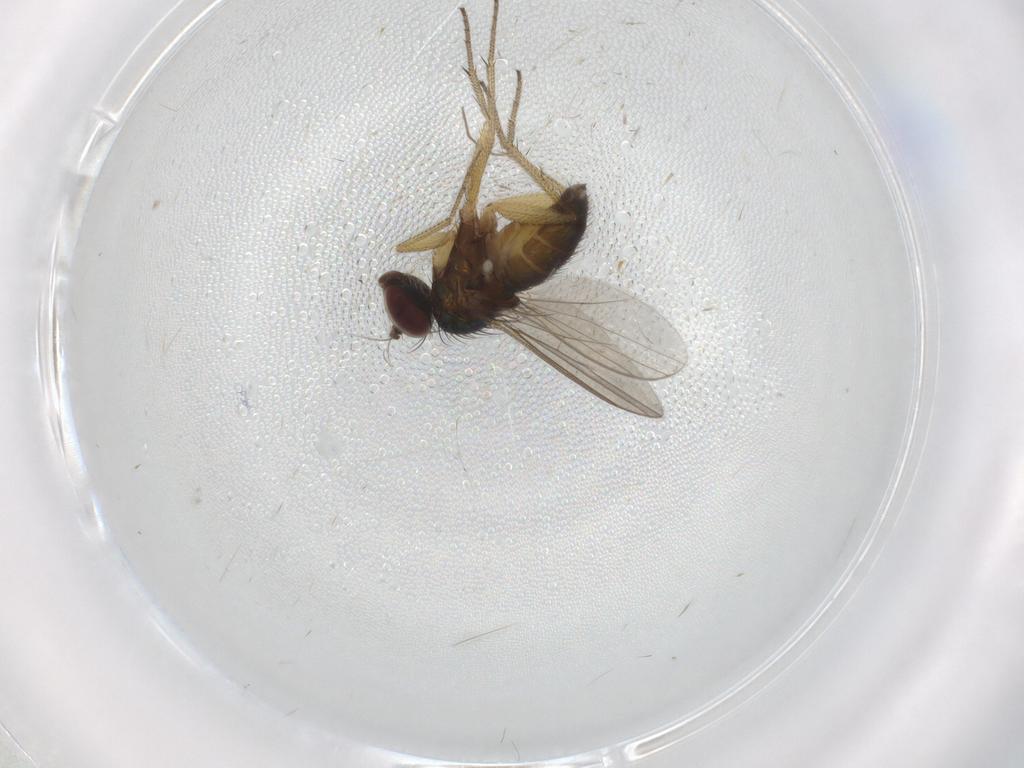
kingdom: Animalia
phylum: Arthropoda
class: Insecta
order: Diptera
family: Dolichopodidae
